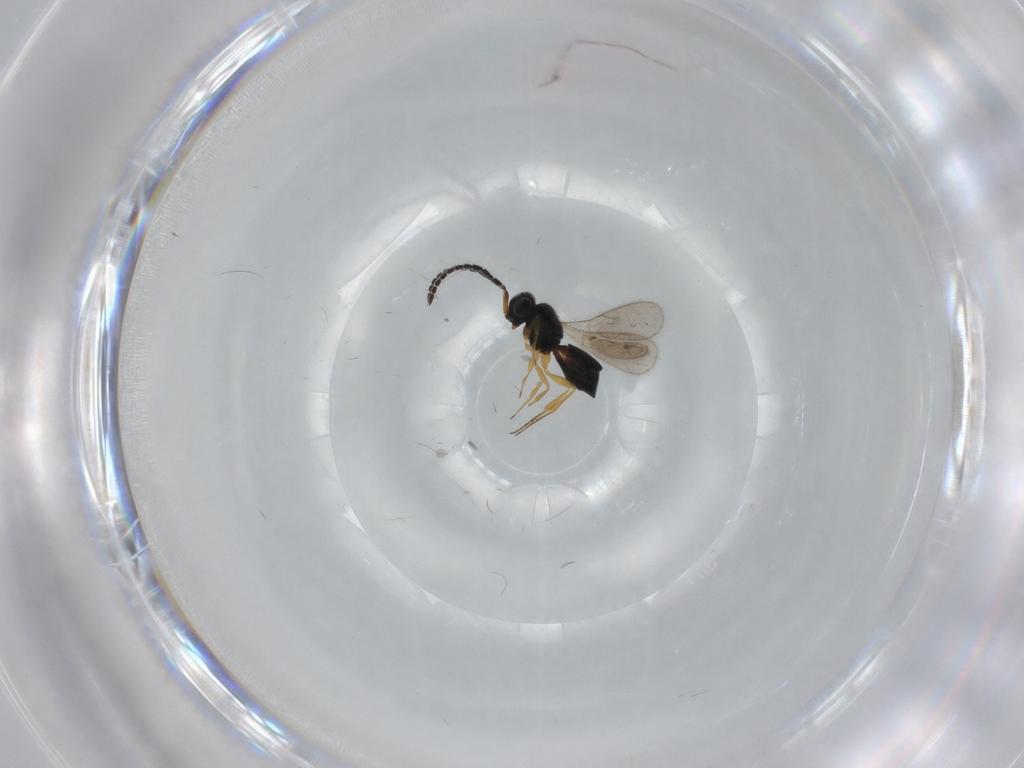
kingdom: Animalia
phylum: Arthropoda
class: Insecta
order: Hymenoptera
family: Scelionidae
